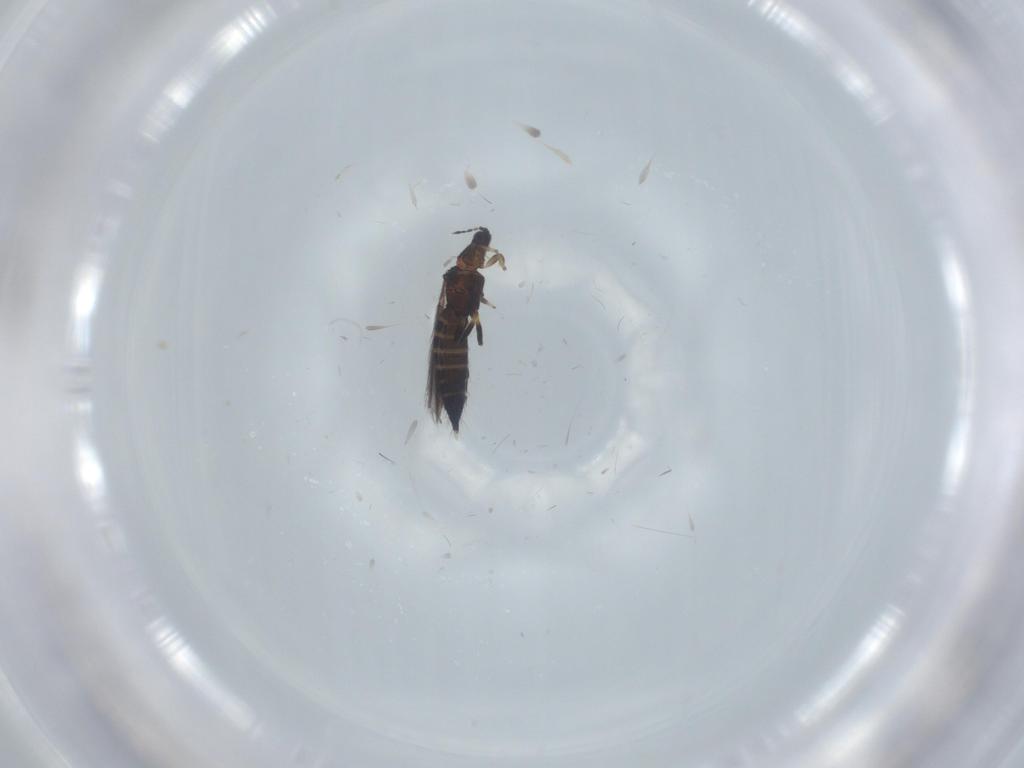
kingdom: Animalia
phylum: Arthropoda
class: Insecta
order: Thysanoptera
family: Thripidae
